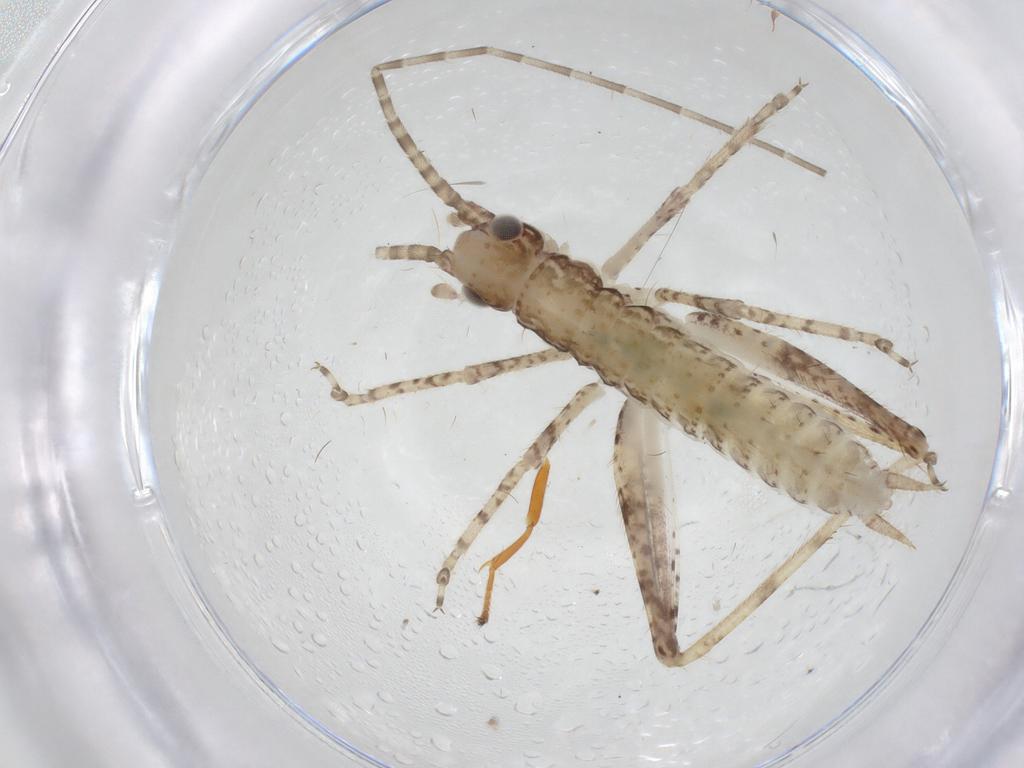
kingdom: Animalia
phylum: Arthropoda
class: Insecta
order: Orthoptera
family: Gryllidae
